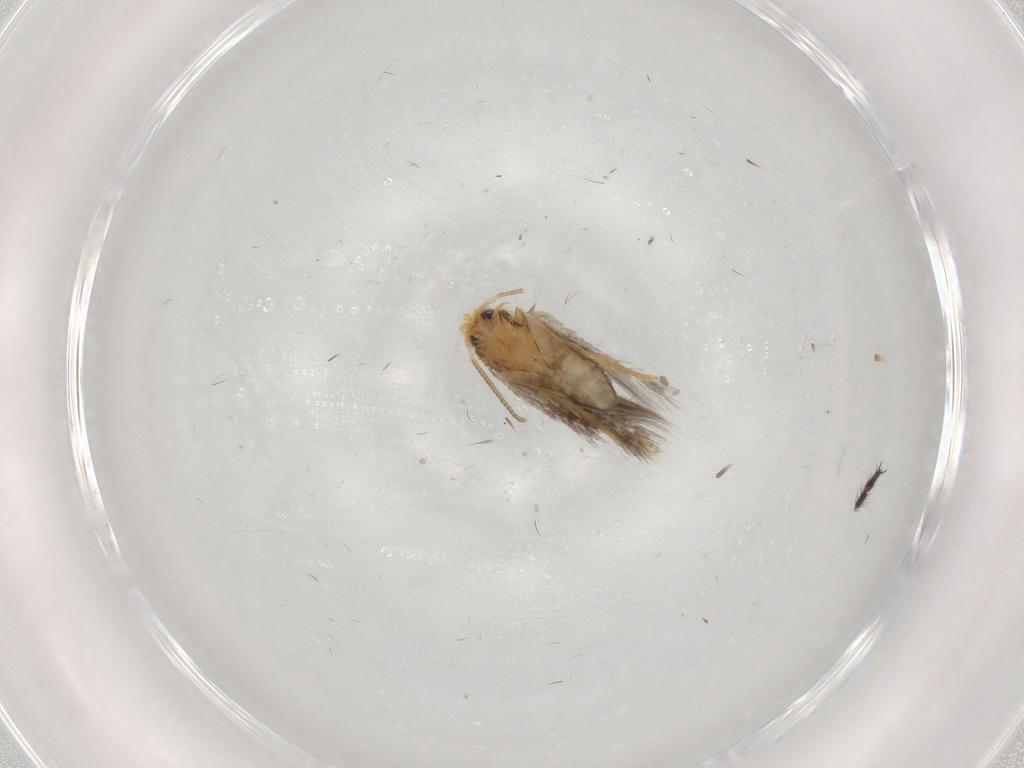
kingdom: Animalia
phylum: Arthropoda
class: Insecta
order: Lepidoptera
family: Nepticulidae
